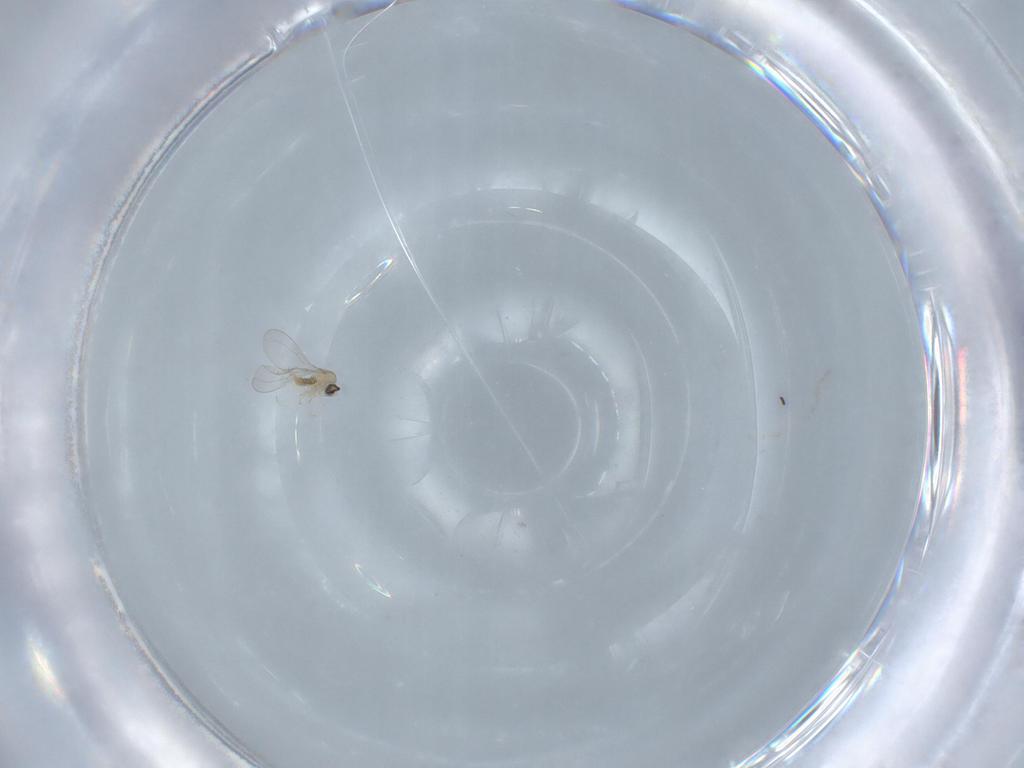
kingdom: Animalia
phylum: Arthropoda
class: Insecta
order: Diptera
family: Cecidomyiidae
